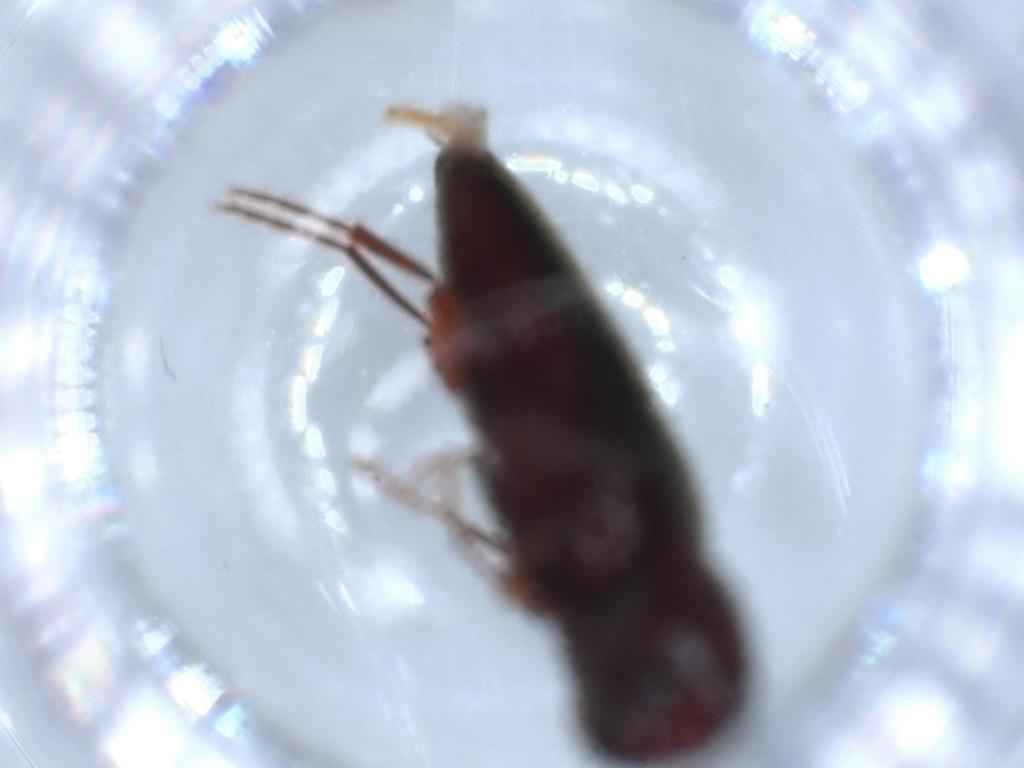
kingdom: Animalia
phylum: Arthropoda
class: Insecta
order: Coleoptera
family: Eucnemidae
